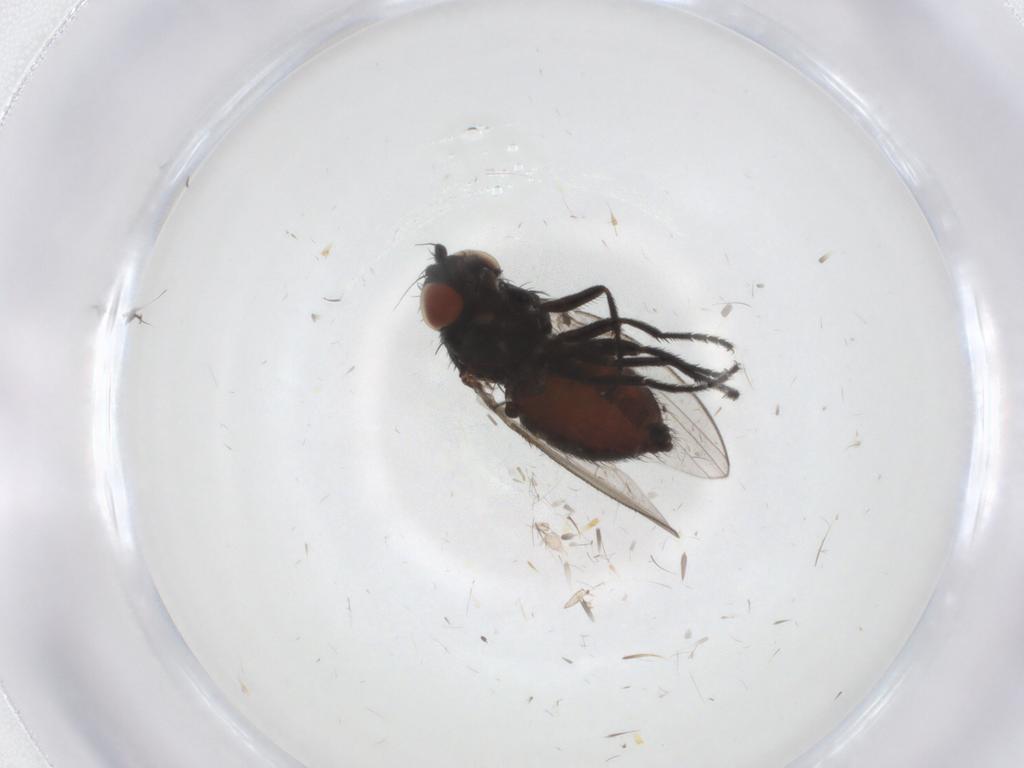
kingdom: Animalia
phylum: Arthropoda
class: Insecta
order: Diptera
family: Milichiidae
